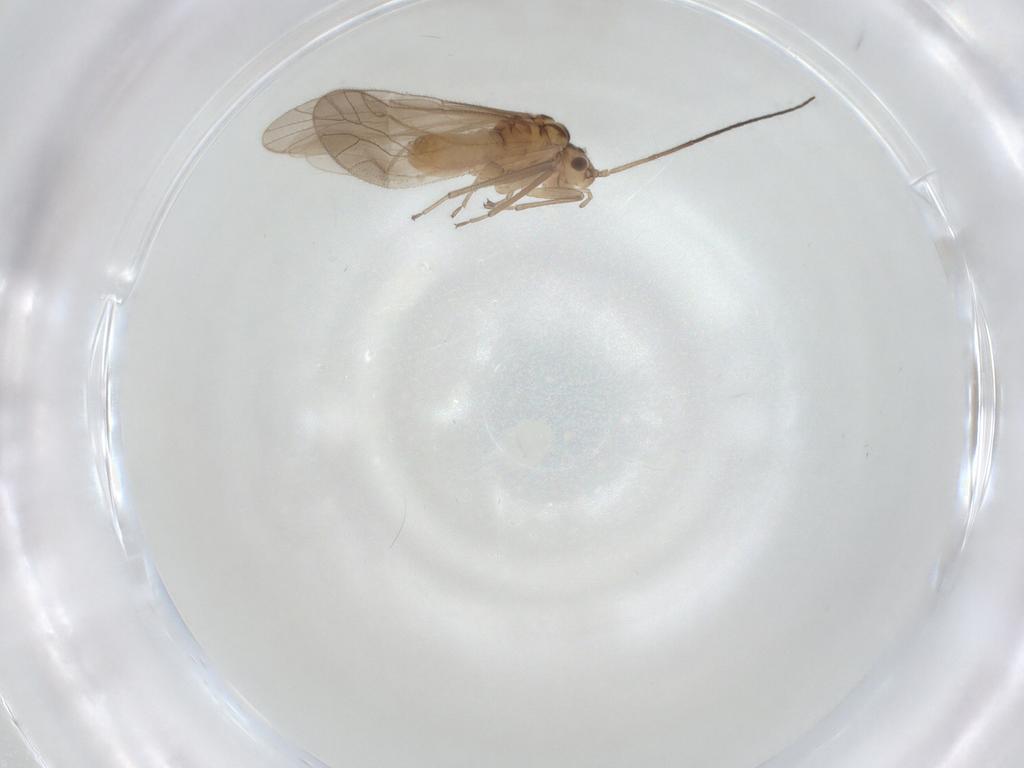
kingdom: Animalia
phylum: Arthropoda
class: Insecta
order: Psocodea
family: Caeciliusidae
